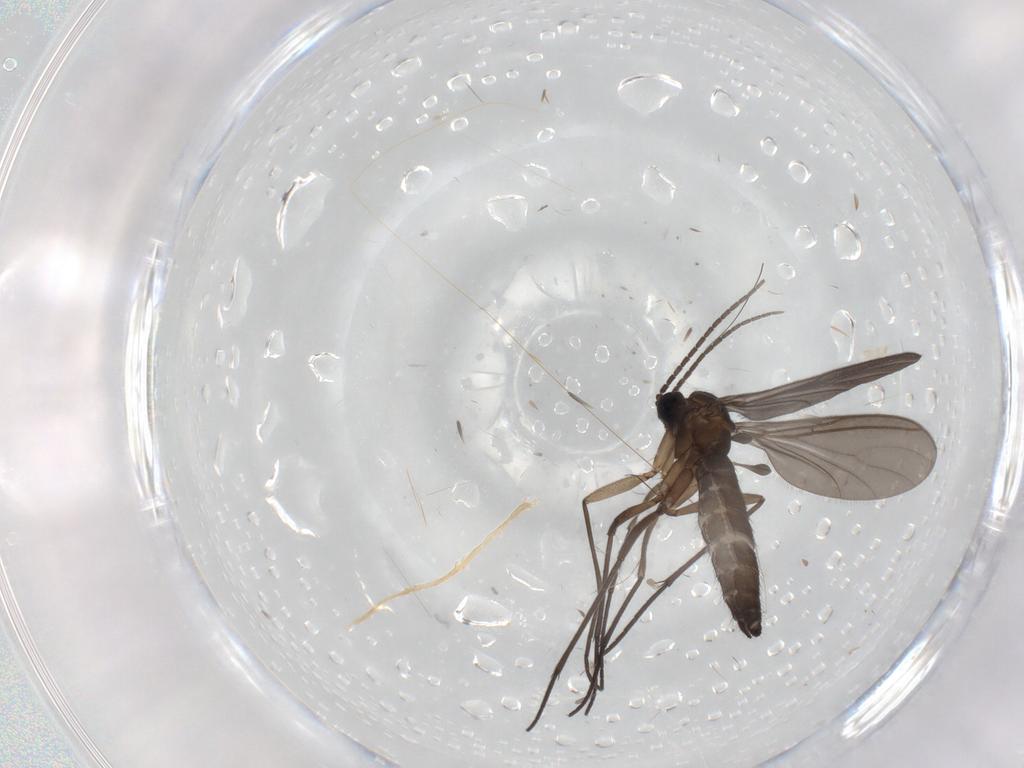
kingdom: Animalia
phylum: Arthropoda
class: Insecta
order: Diptera
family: Sciaridae
